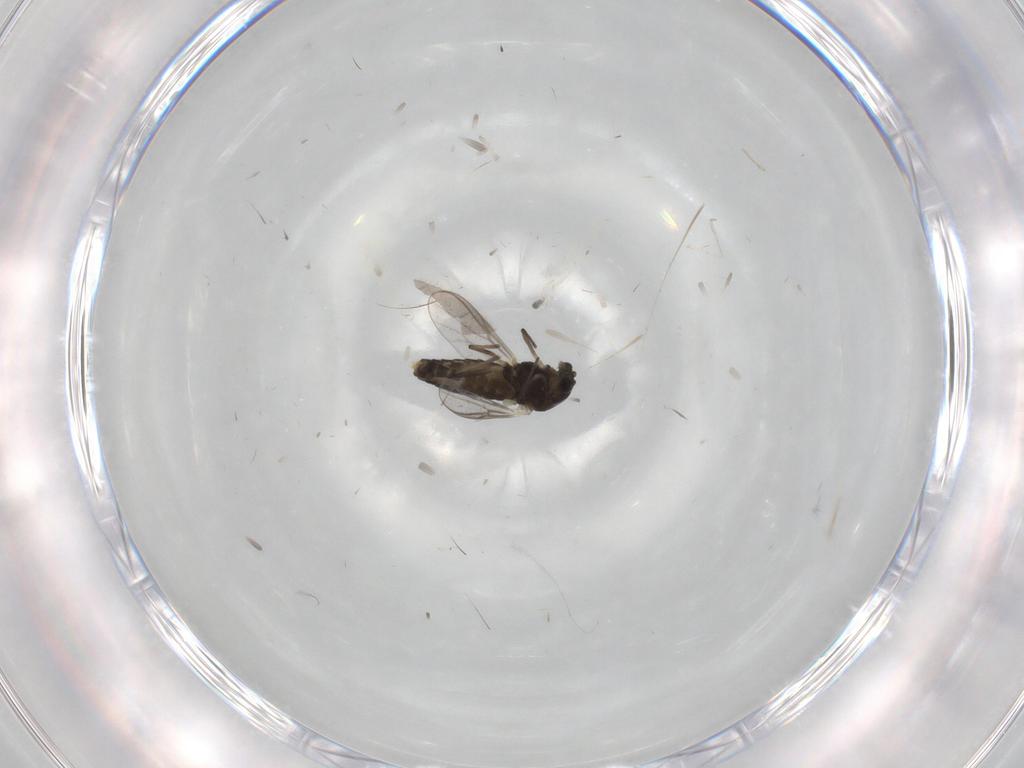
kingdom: Animalia
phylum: Arthropoda
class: Insecta
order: Diptera
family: Chironomidae
